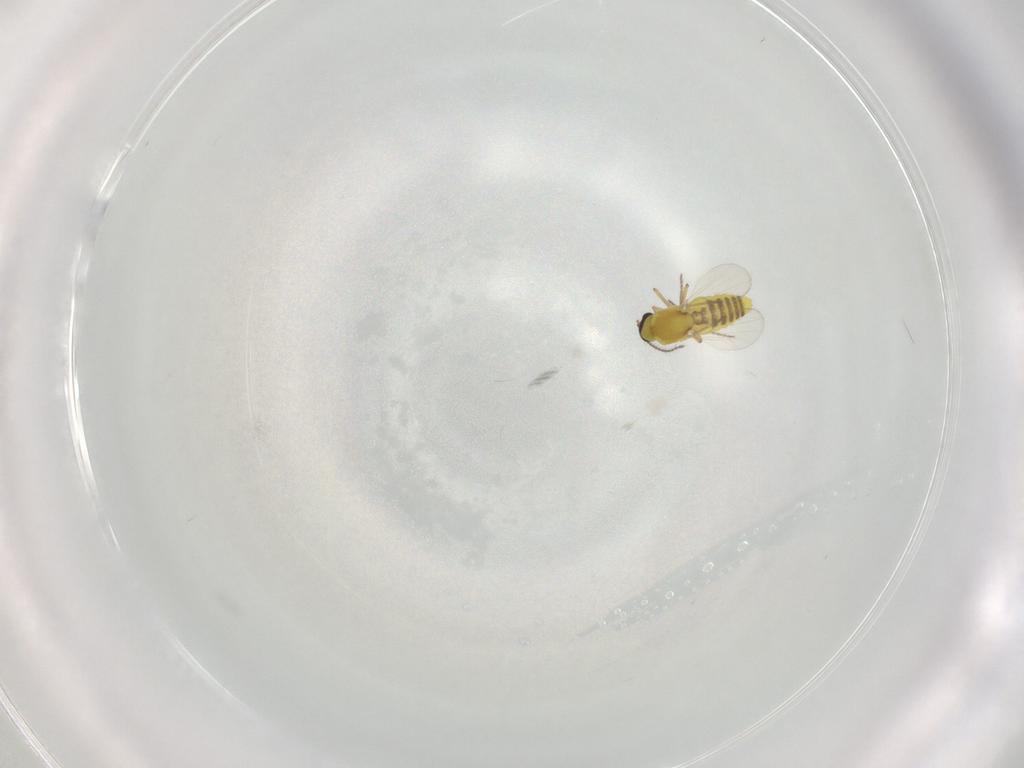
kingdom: Animalia
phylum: Arthropoda
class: Insecta
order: Diptera
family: Ceratopogonidae
